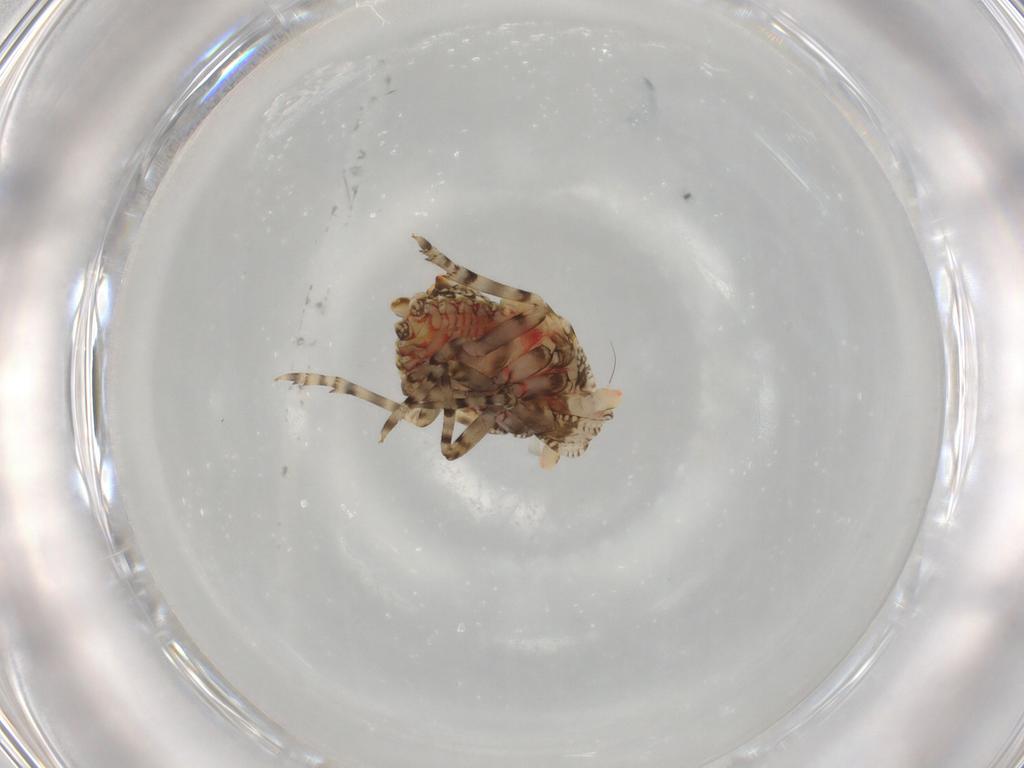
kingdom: Animalia
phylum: Arthropoda
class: Insecta
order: Hemiptera
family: Derbidae
